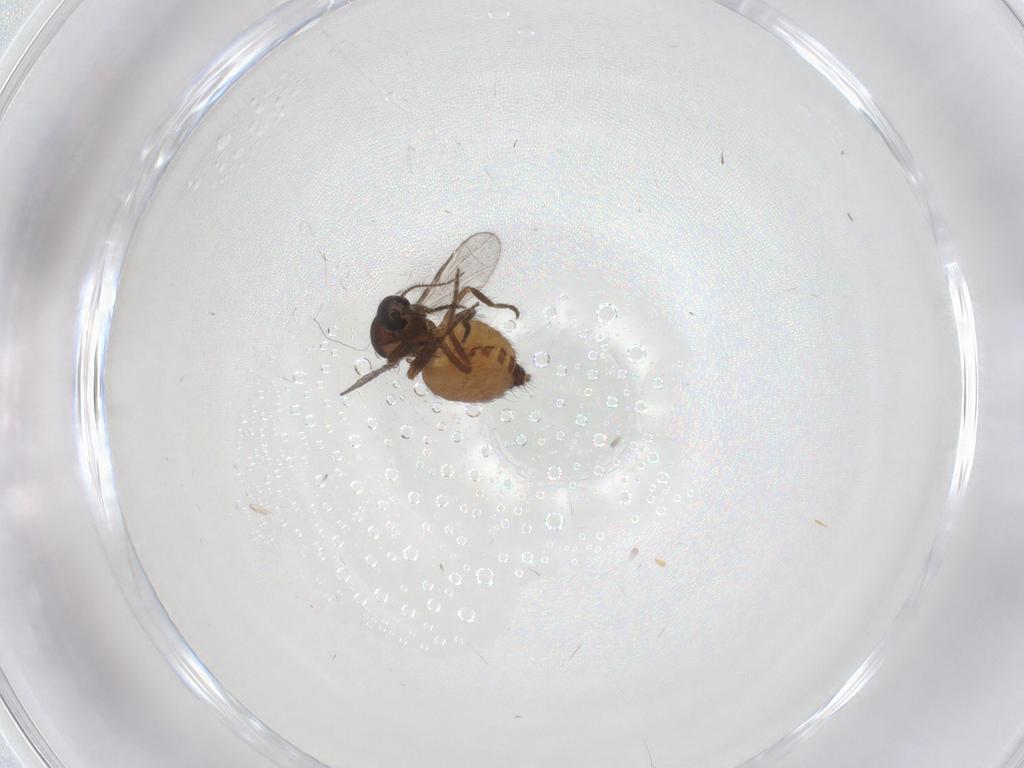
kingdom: Animalia
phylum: Arthropoda
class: Insecta
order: Diptera
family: Ceratopogonidae
